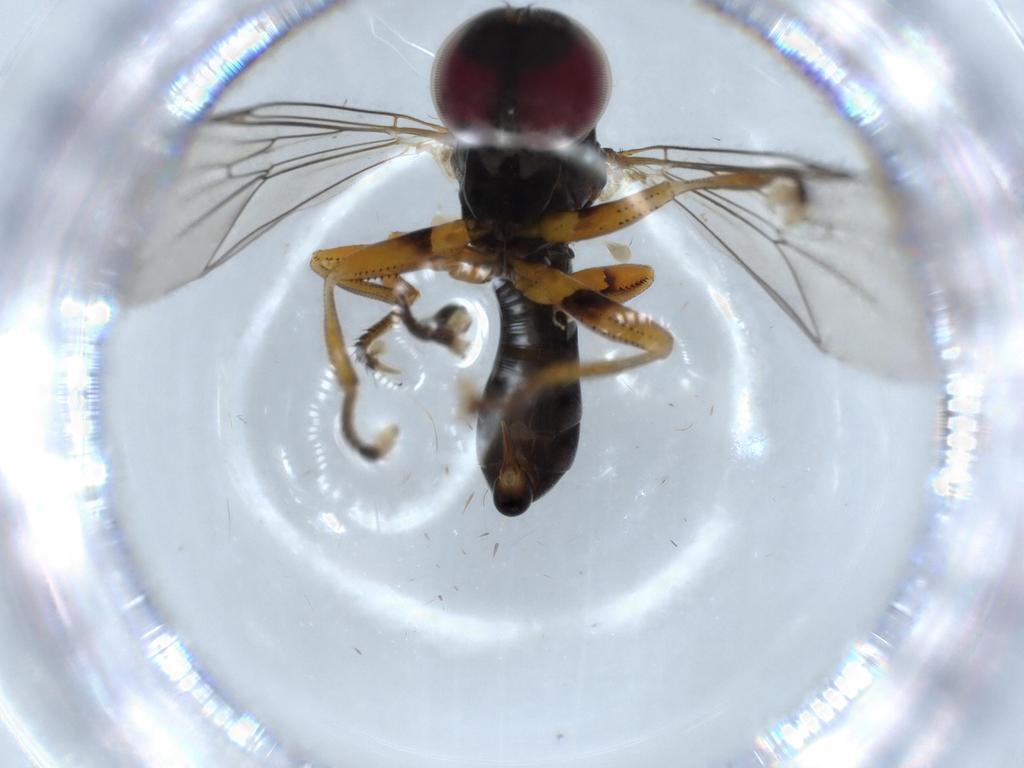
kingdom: Animalia
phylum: Arthropoda
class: Insecta
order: Diptera
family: Pipunculidae
